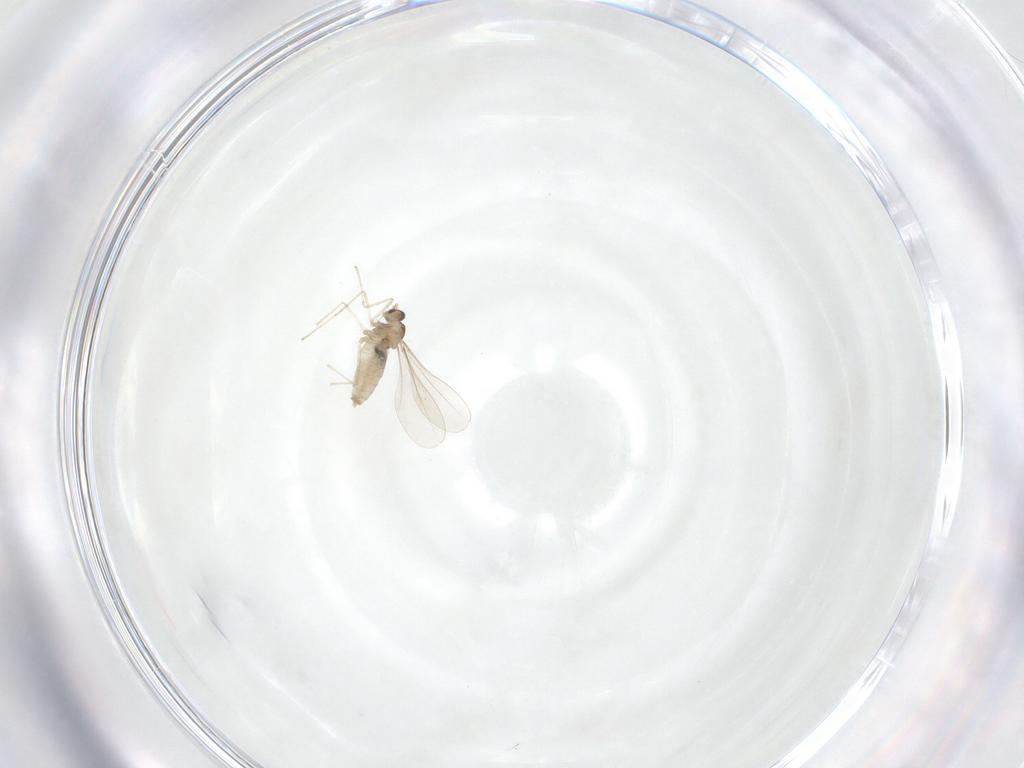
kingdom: Animalia
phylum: Arthropoda
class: Insecta
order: Diptera
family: Cecidomyiidae
